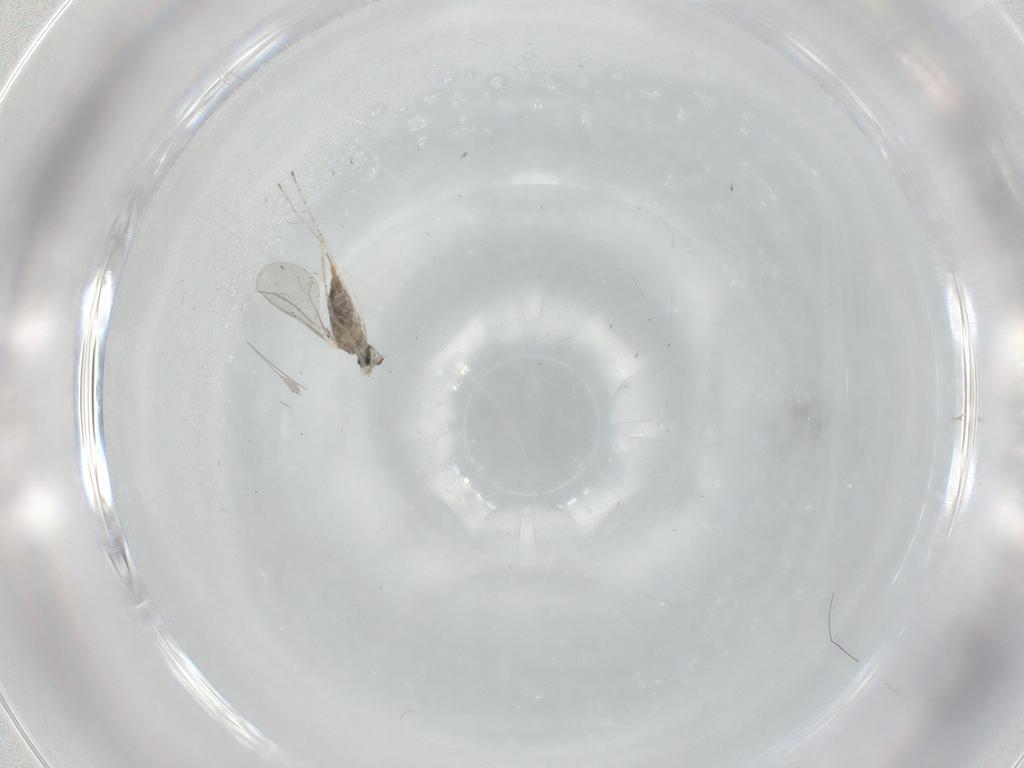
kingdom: Animalia
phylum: Arthropoda
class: Insecta
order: Diptera
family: Cecidomyiidae
